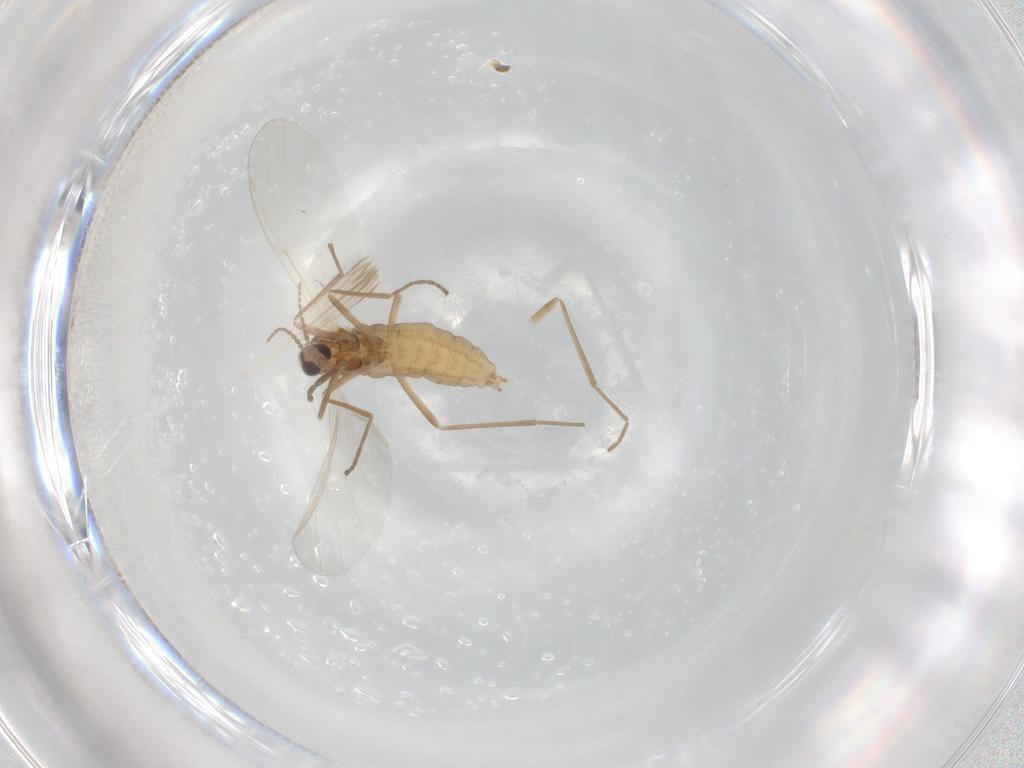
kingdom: Animalia
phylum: Arthropoda
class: Insecta
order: Diptera
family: Cecidomyiidae
